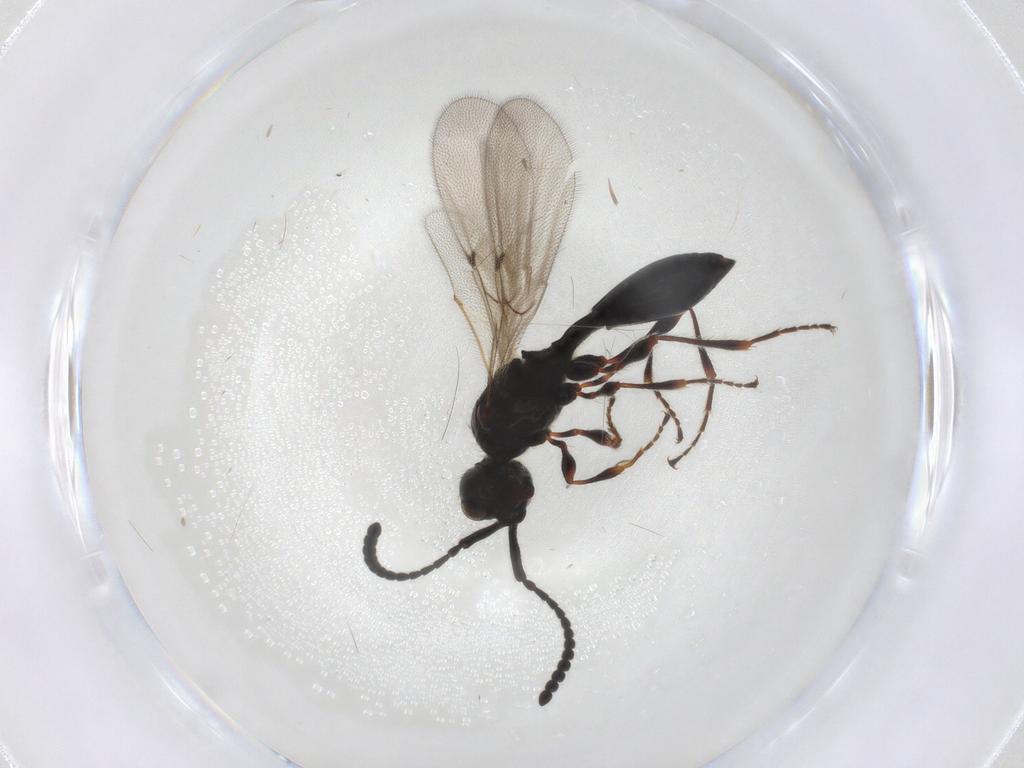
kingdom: Animalia
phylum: Arthropoda
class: Insecta
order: Hymenoptera
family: Diapriidae
